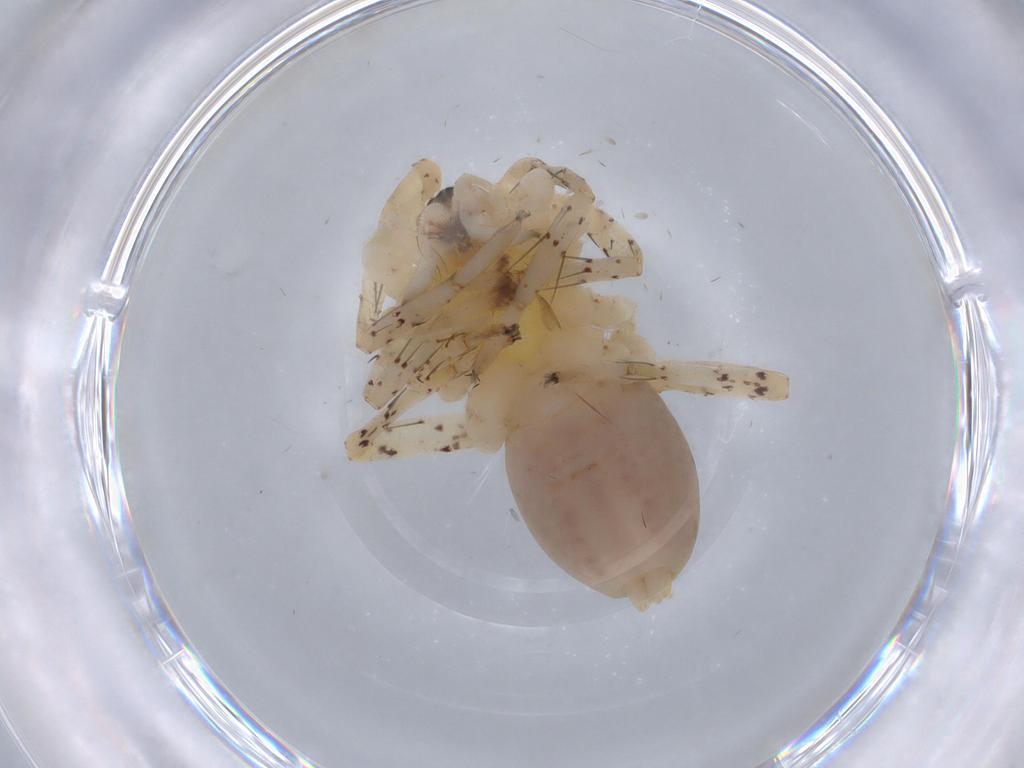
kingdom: Animalia
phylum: Arthropoda
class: Arachnida
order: Araneae
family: Anyphaenidae
